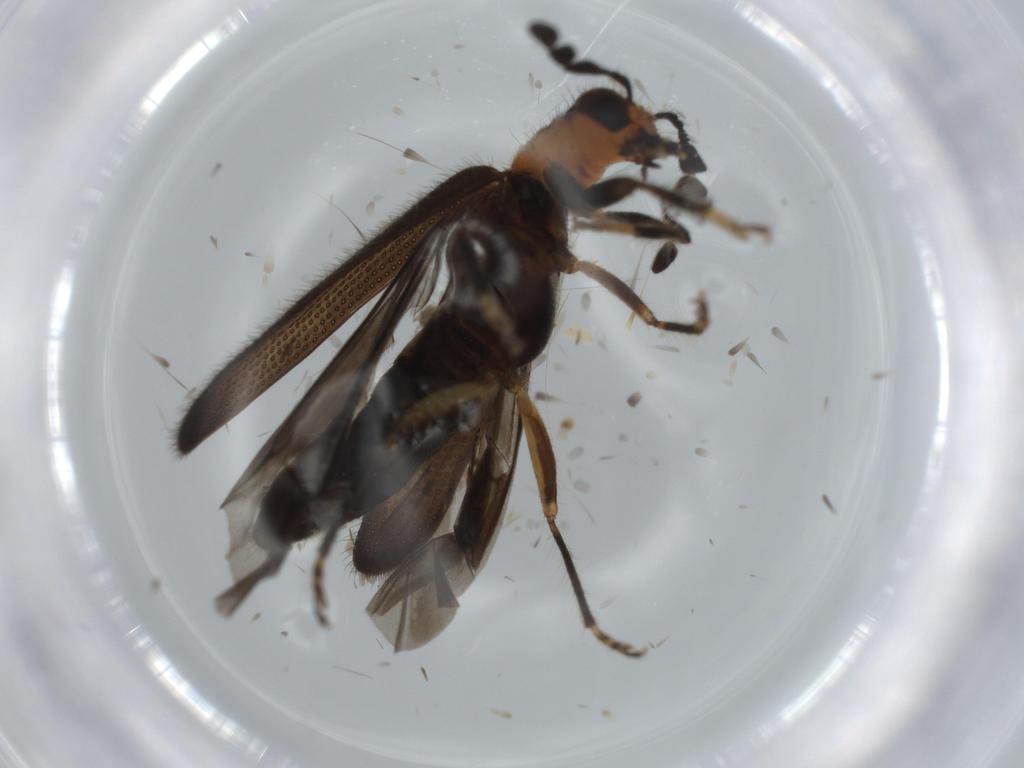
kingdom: Animalia
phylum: Arthropoda
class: Insecta
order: Coleoptera
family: Cleridae
